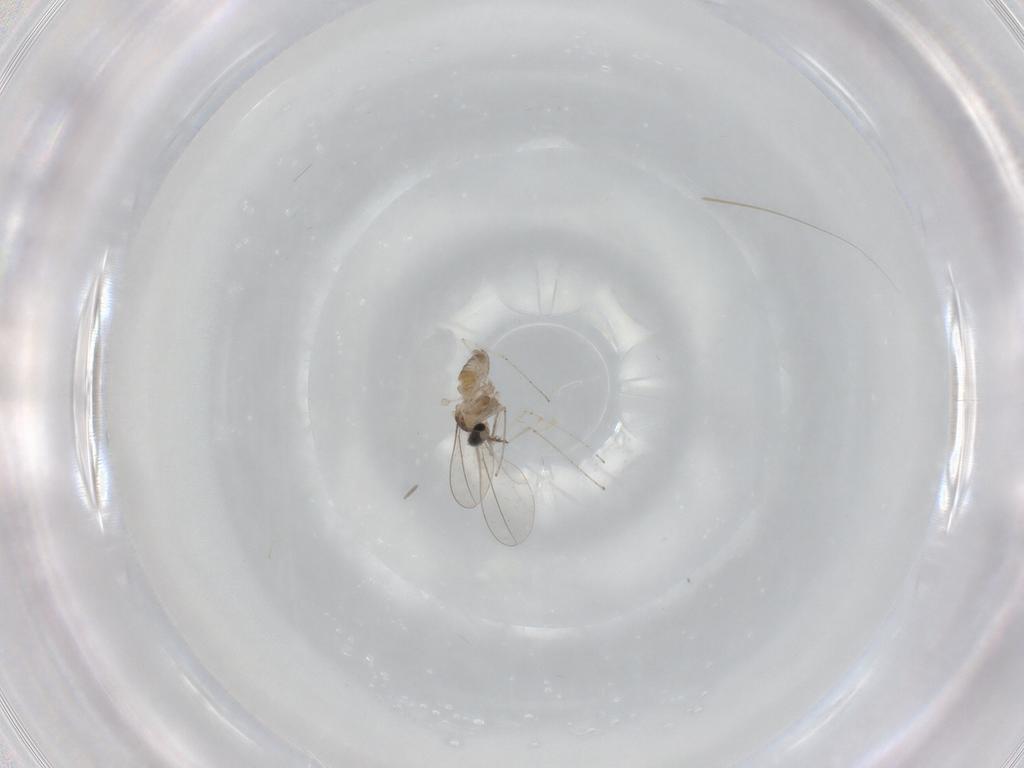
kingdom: Animalia
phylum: Arthropoda
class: Insecta
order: Diptera
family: Cecidomyiidae
